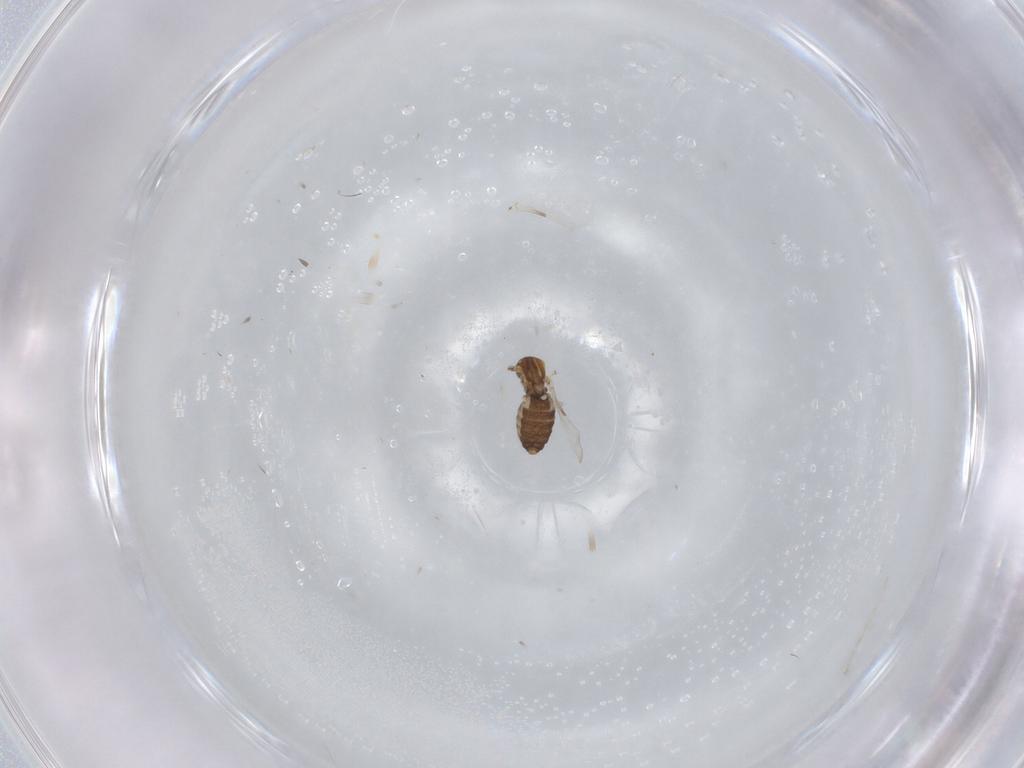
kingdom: Animalia
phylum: Arthropoda
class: Insecta
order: Diptera
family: Ceratopogonidae
